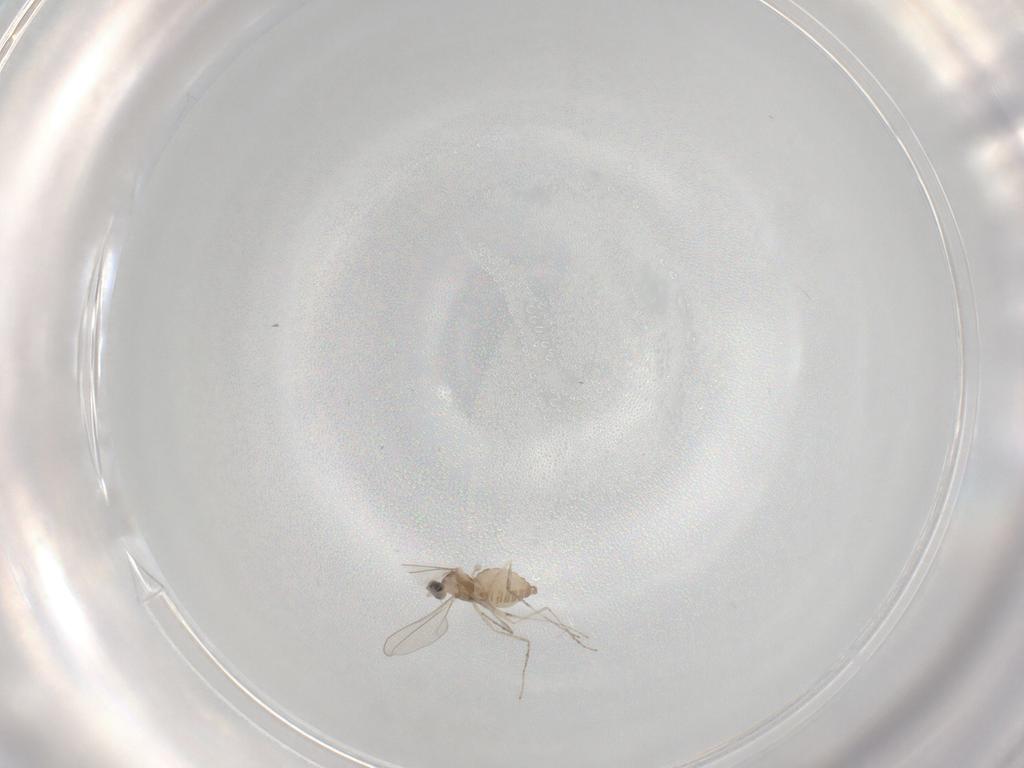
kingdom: Animalia
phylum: Arthropoda
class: Insecta
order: Diptera
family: Cecidomyiidae
